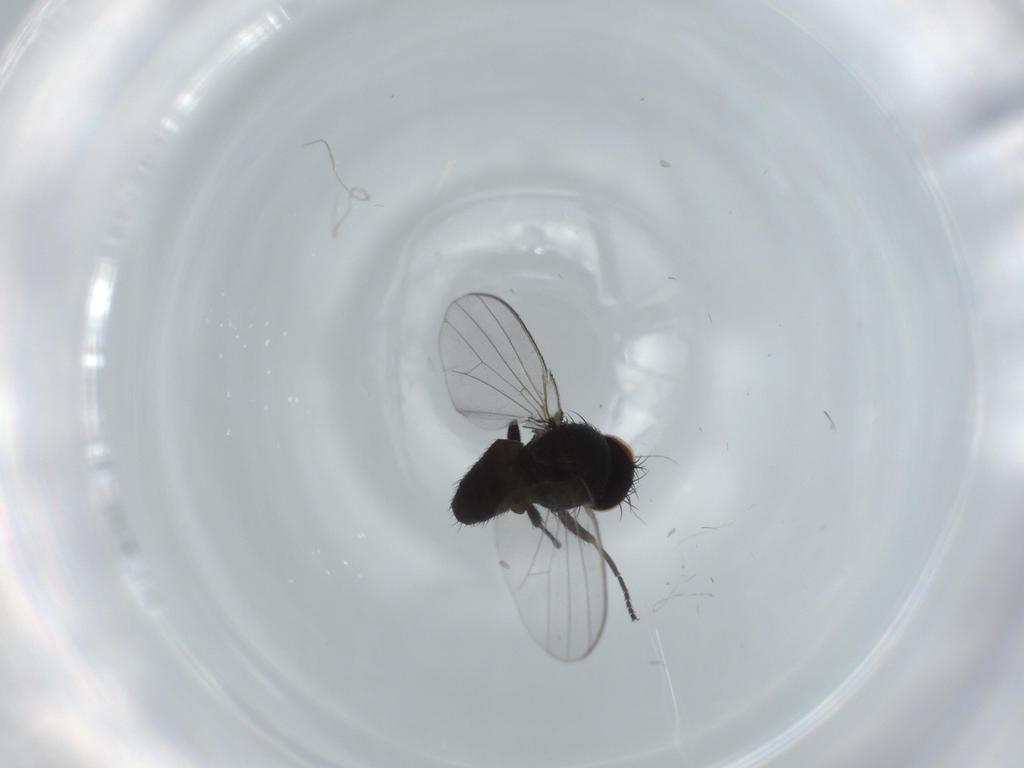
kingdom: Animalia
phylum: Arthropoda
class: Insecta
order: Diptera
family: Milichiidae
